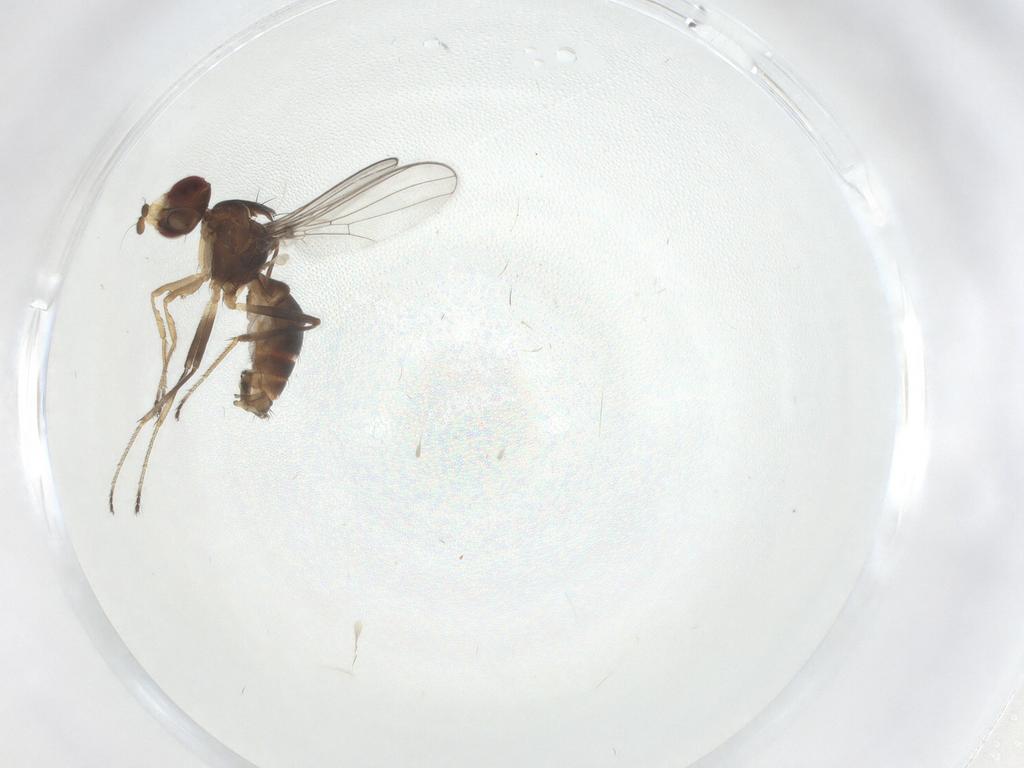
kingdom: Animalia
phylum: Arthropoda
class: Insecta
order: Diptera
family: Sepsidae
